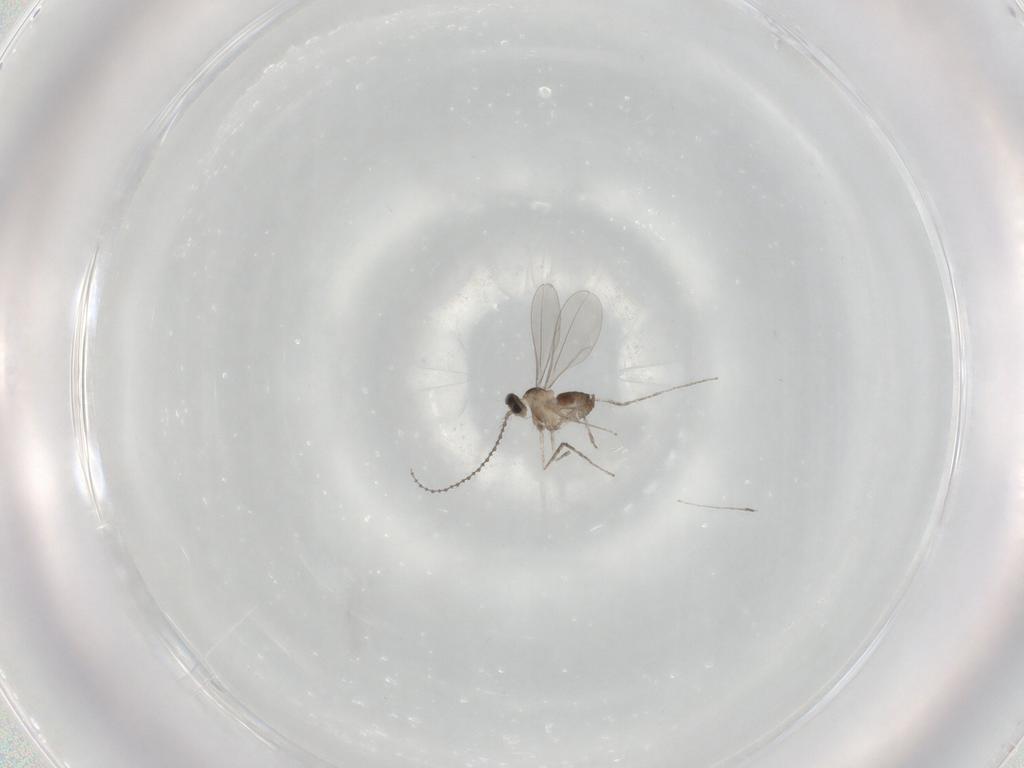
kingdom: Animalia
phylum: Arthropoda
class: Insecta
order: Diptera
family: Cecidomyiidae
